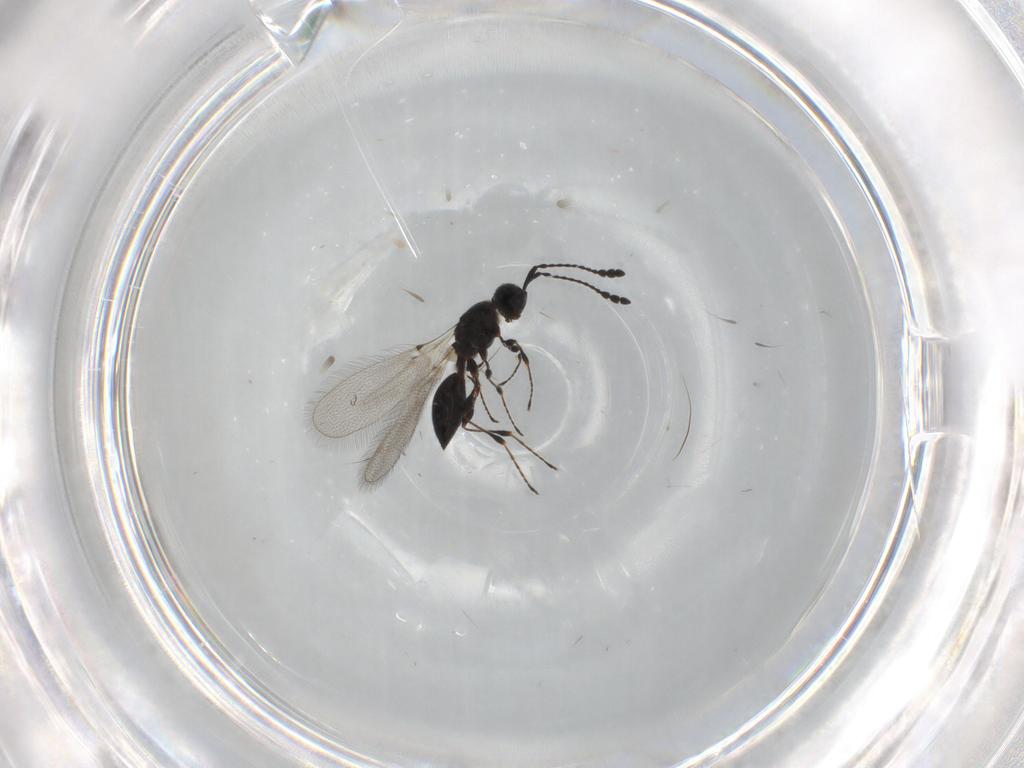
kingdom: Animalia
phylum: Arthropoda
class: Insecta
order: Hymenoptera
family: Diapriidae
